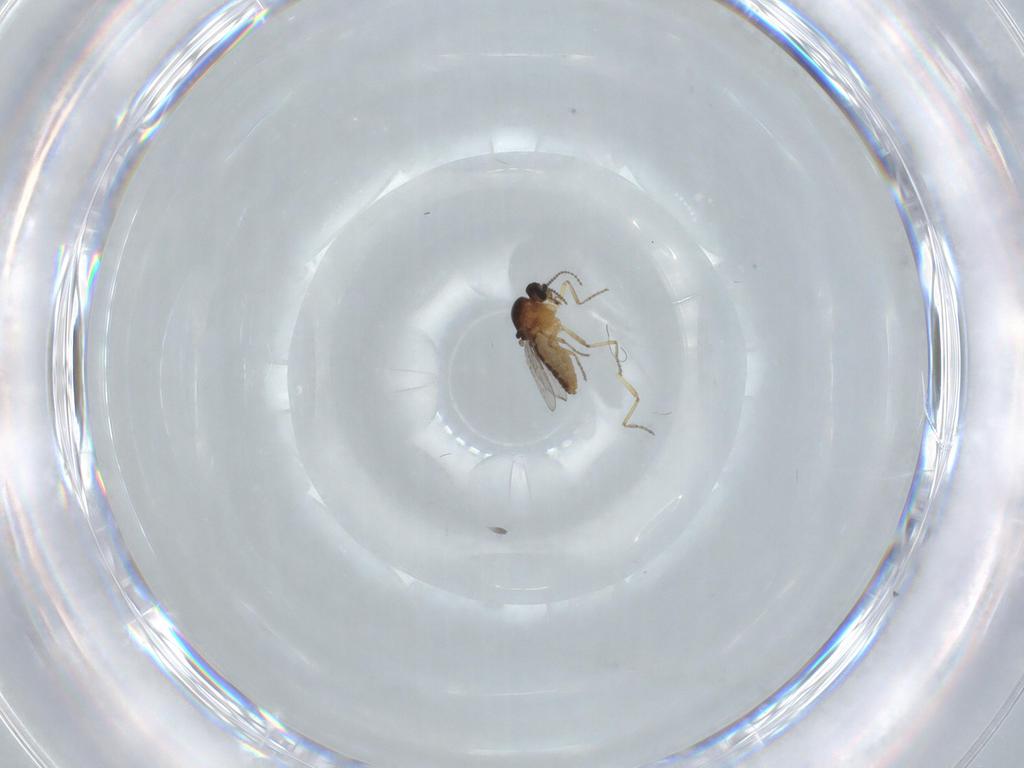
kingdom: Animalia
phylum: Arthropoda
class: Insecta
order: Diptera
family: Ceratopogonidae
